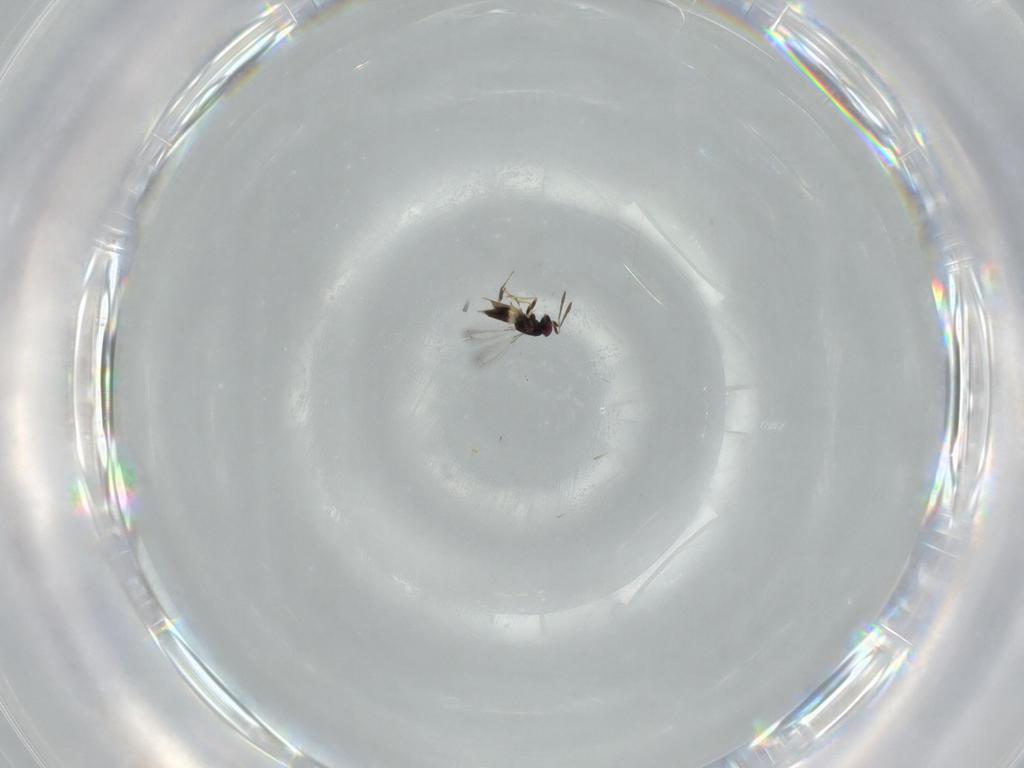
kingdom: Animalia
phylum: Arthropoda
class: Insecta
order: Hymenoptera
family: Mymaridae
